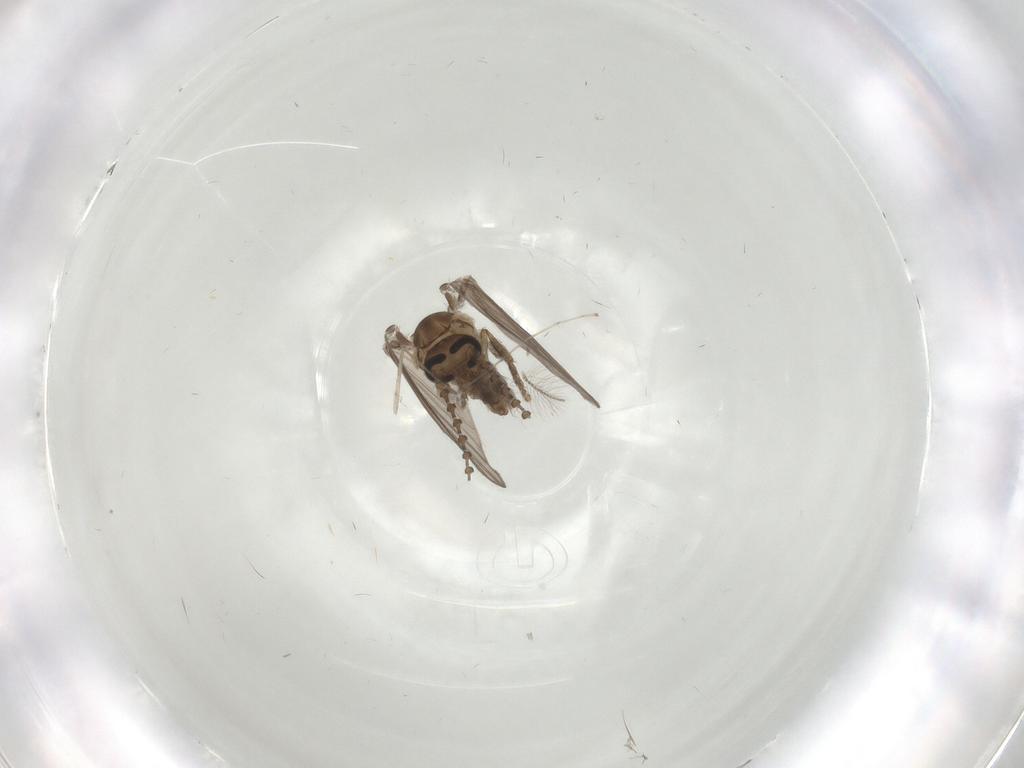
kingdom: Animalia
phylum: Arthropoda
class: Insecta
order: Diptera
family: Psychodidae
